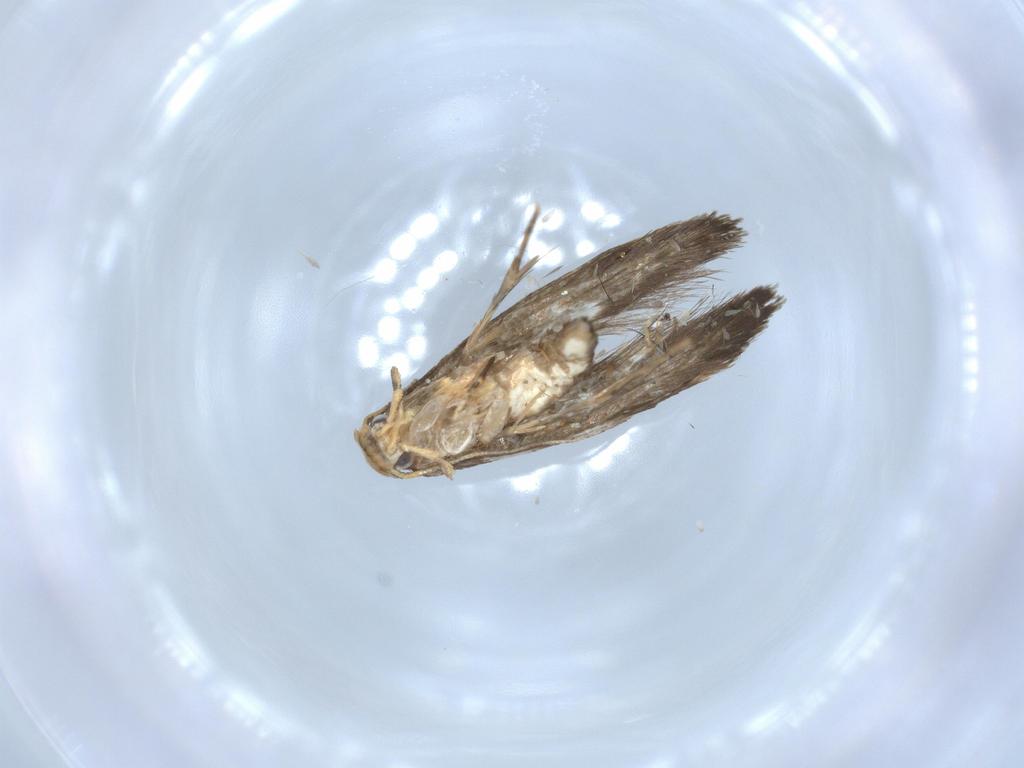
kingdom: Animalia
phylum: Arthropoda
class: Insecta
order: Lepidoptera
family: Tineidae
